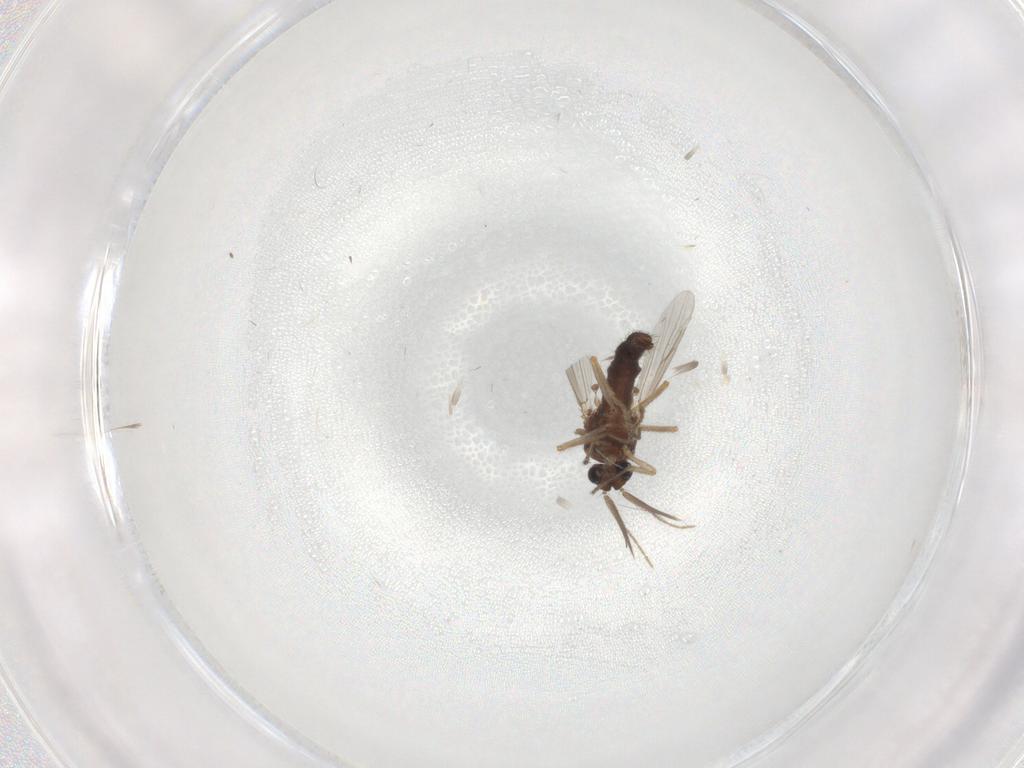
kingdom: Animalia
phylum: Arthropoda
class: Insecta
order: Diptera
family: Ceratopogonidae
